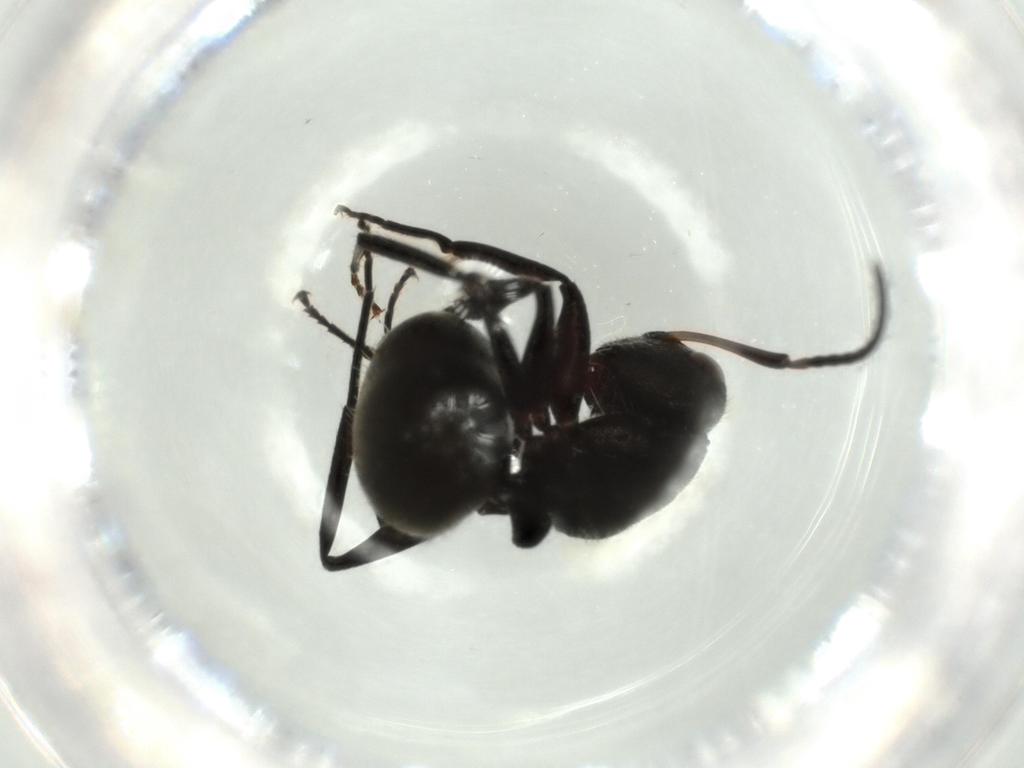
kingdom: Animalia
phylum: Arthropoda
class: Insecta
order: Hymenoptera
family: Formicidae
